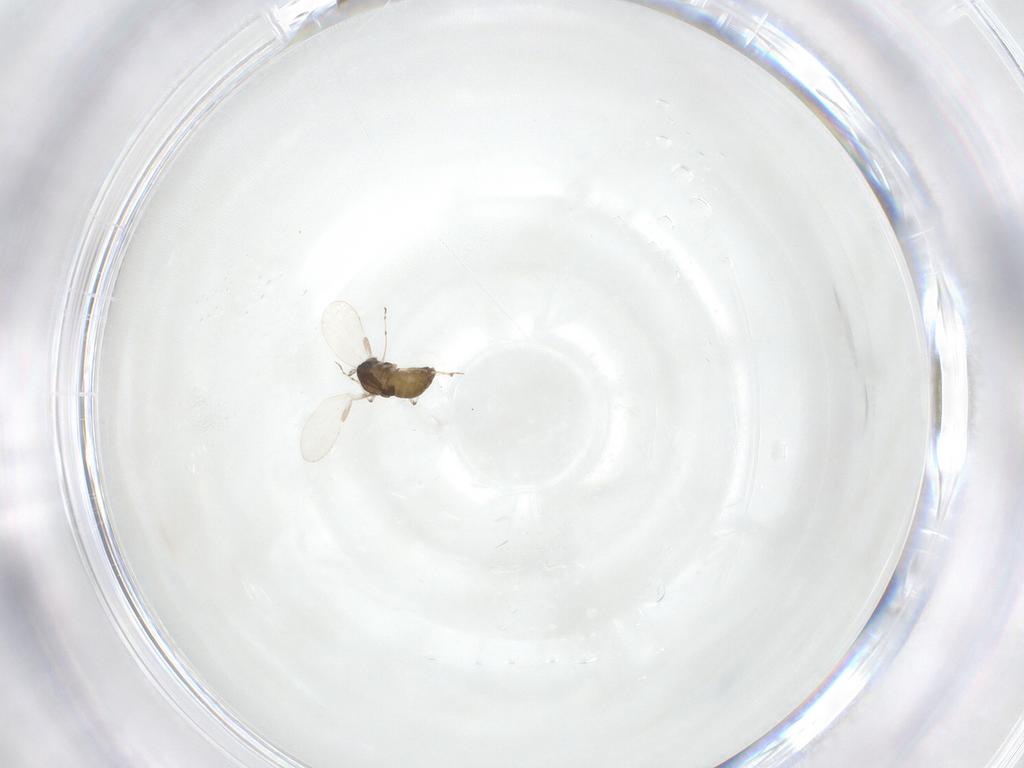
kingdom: Animalia
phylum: Arthropoda
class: Insecta
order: Diptera
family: Chironomidae
